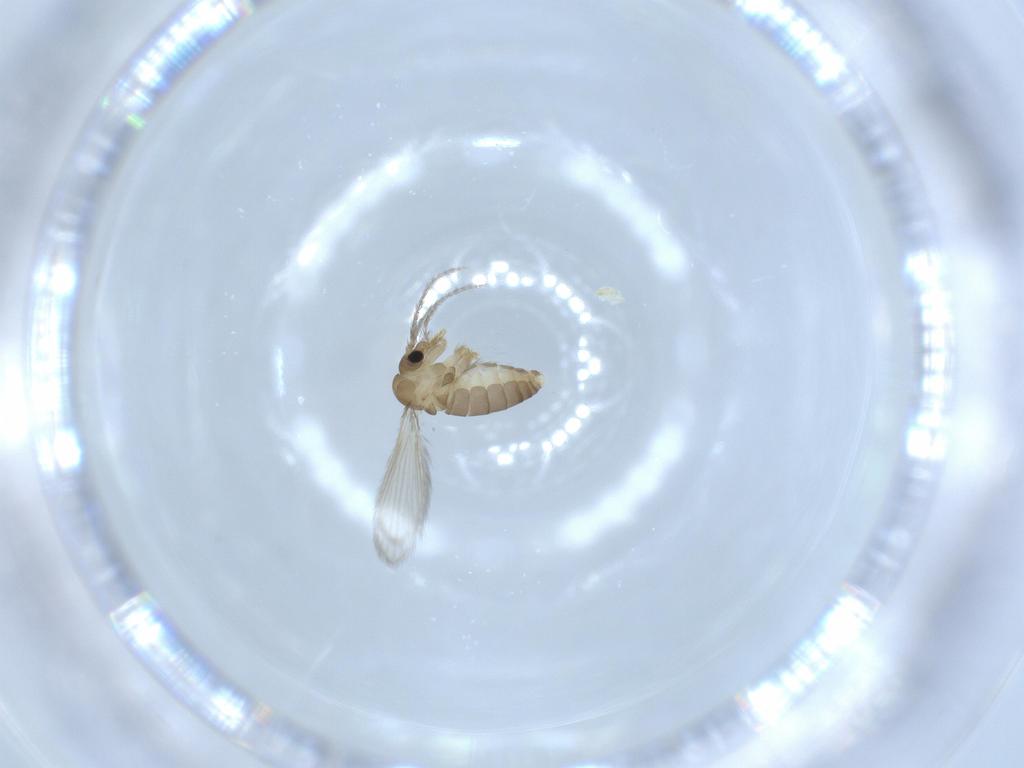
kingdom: Animalia
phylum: Arthropoda
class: Insecta
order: Diptera
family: Psychodidae
